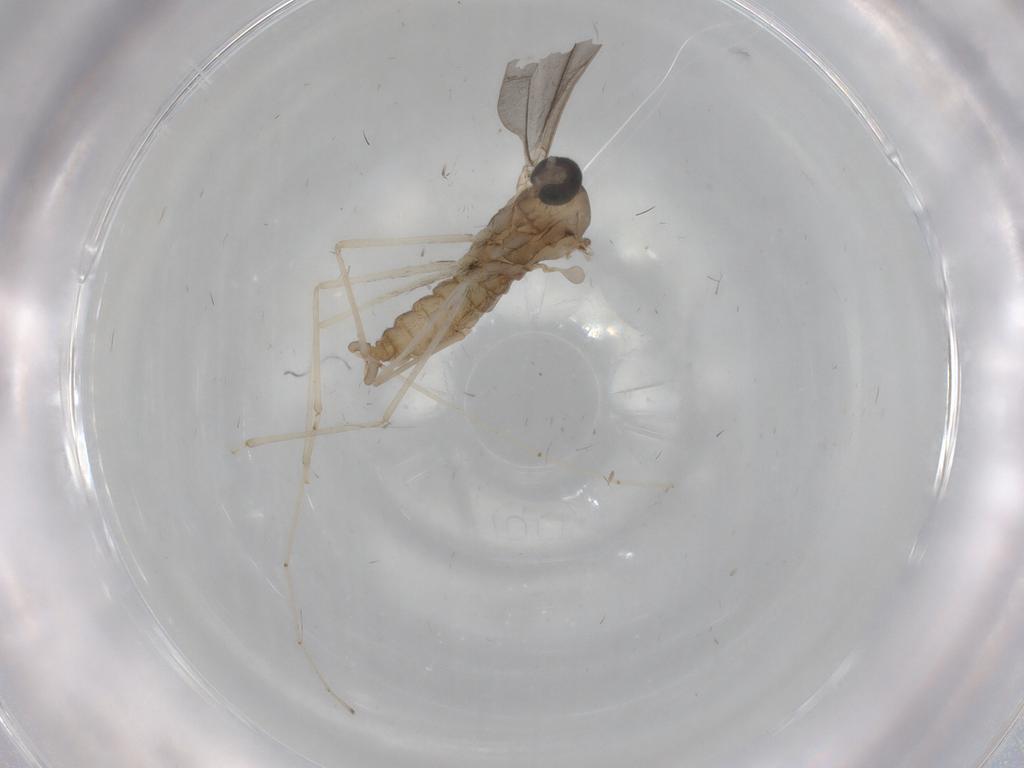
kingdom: Animalia
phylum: Arthropoda
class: Insecta
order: Diptera
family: Cecidomyiidae
